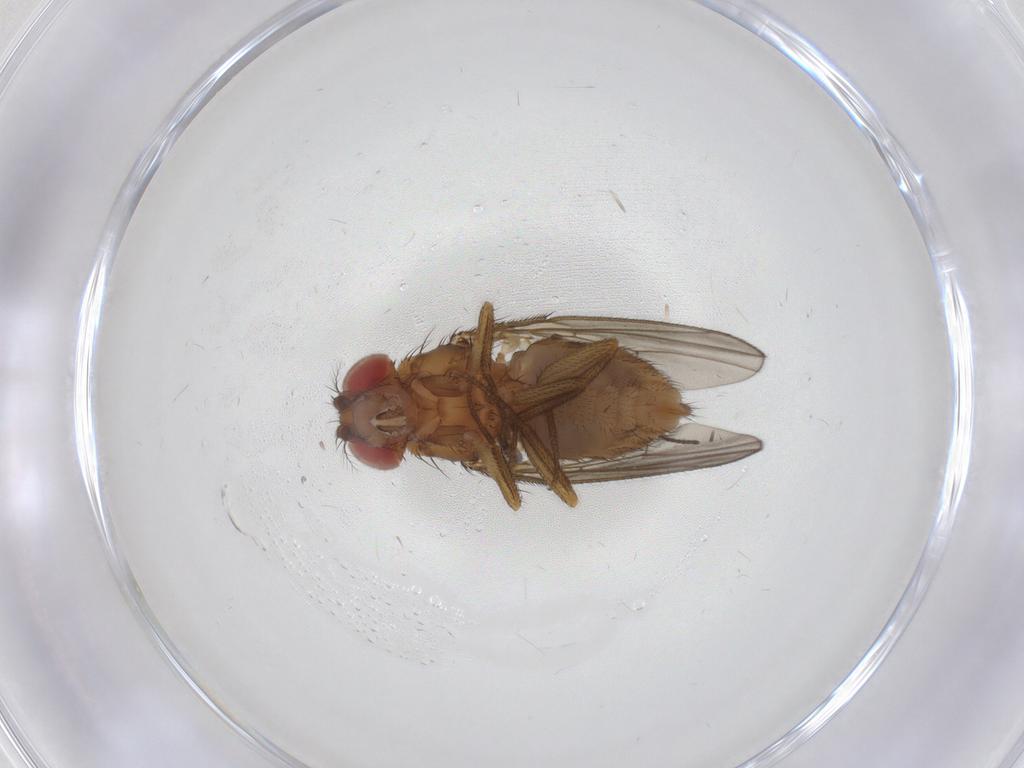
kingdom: Animalia
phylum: Arthropoda
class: Insecta
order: Diptera
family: Drosophilidae
